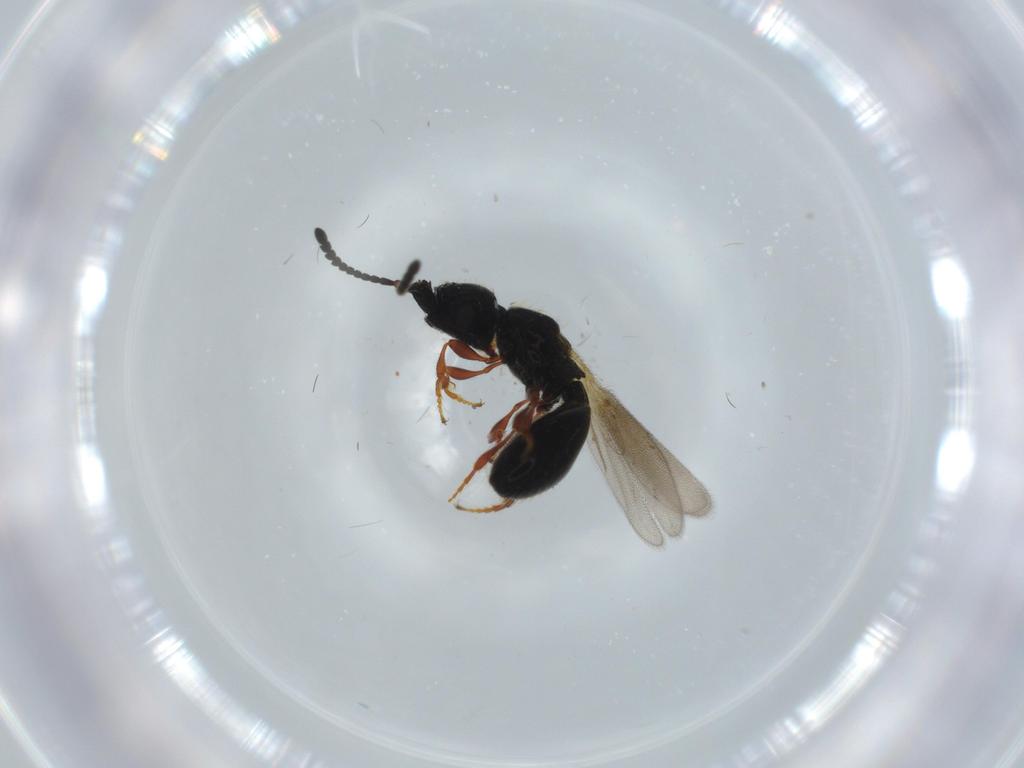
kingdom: Animalia
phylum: Arthropoda
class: Insecta
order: Hymenoptera
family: Diapriidae
